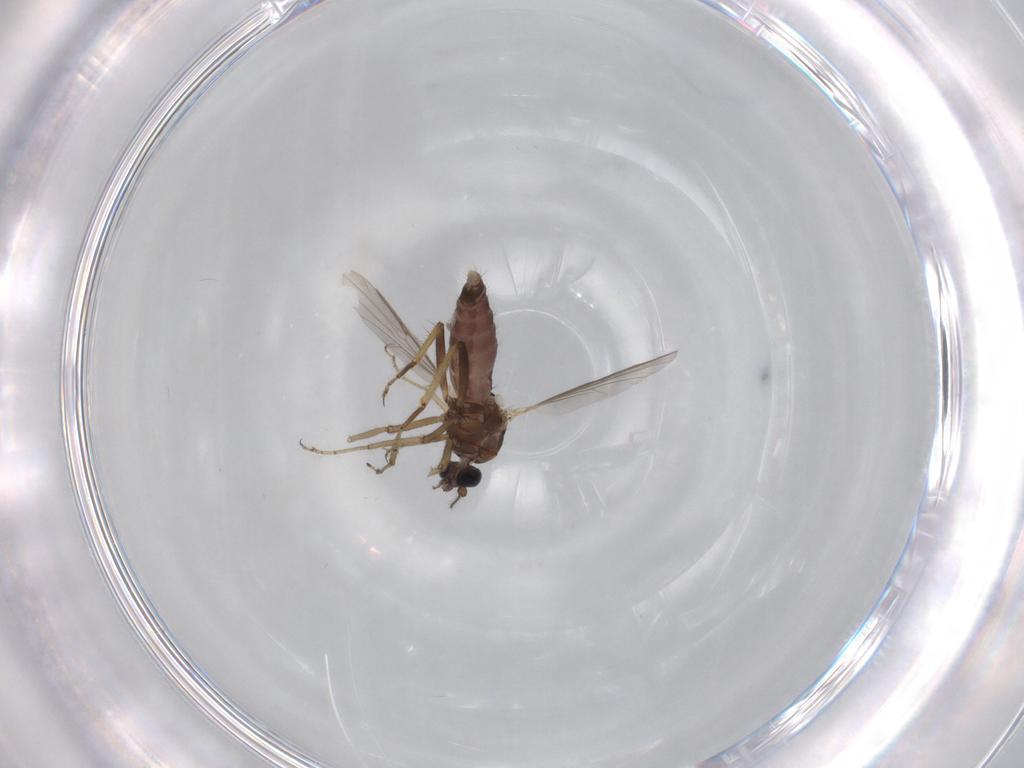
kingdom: Animalia
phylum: Arthropoda
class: Insecta
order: Diptera
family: Ceratopogonidae
